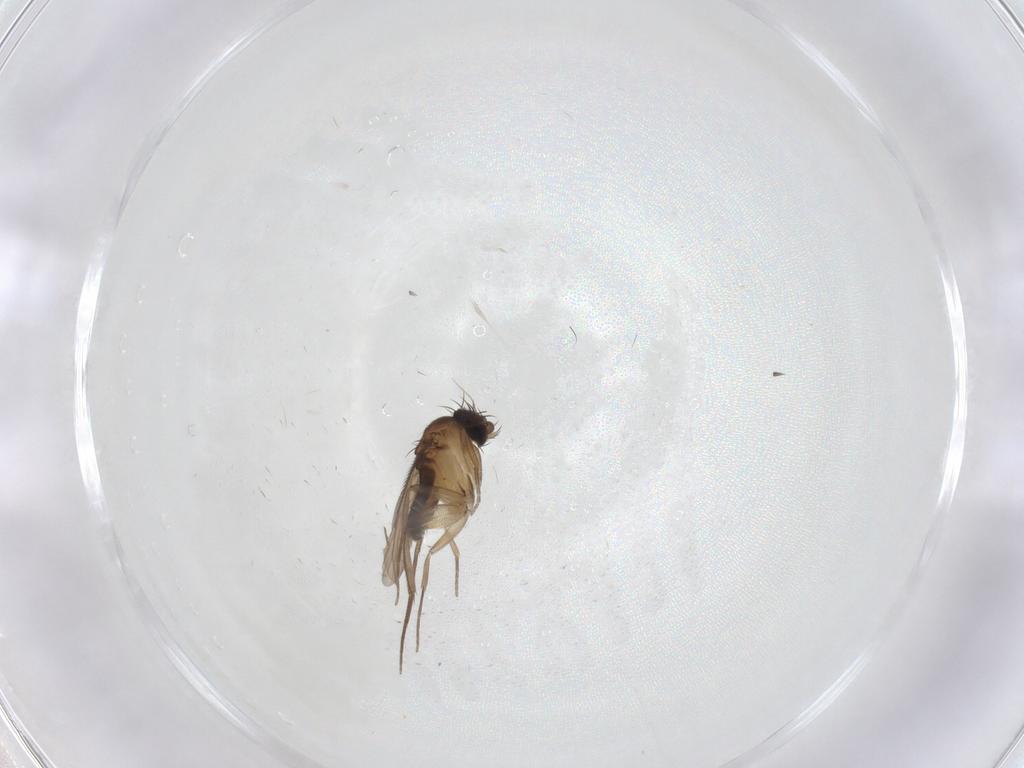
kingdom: Animalia
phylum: Arthropoda
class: Insecta
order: Diptera
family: Phoridae
